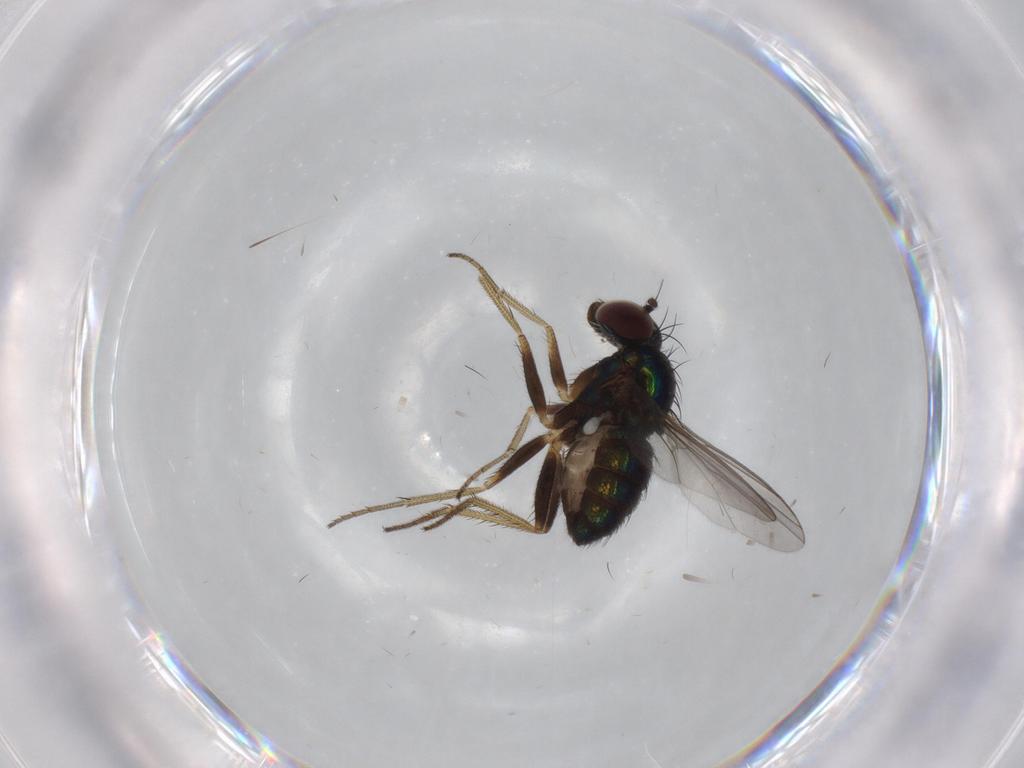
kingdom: Animalia
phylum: Arthropoda
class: Insecta
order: Diptera
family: Dolichopodidae
